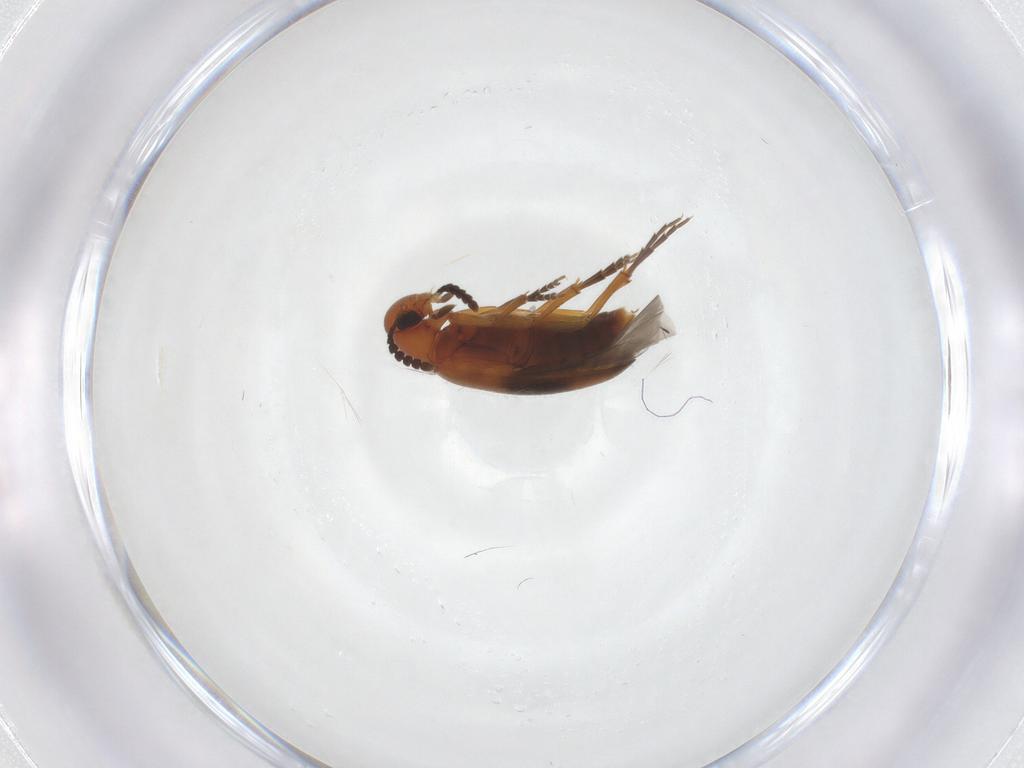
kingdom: Animalia
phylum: Arthropoda
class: Insecta
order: Coleoptera
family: Scraptiidae
